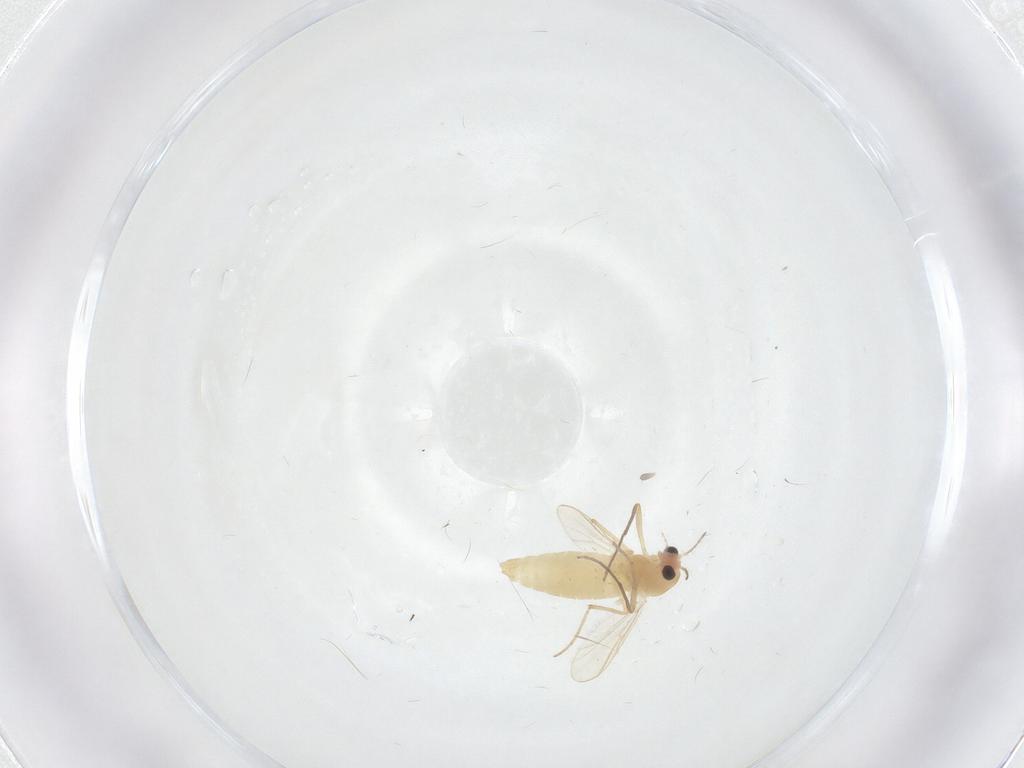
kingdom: Animalia
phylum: Arthropoda
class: Insecta
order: Diptera
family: Chironomidae
